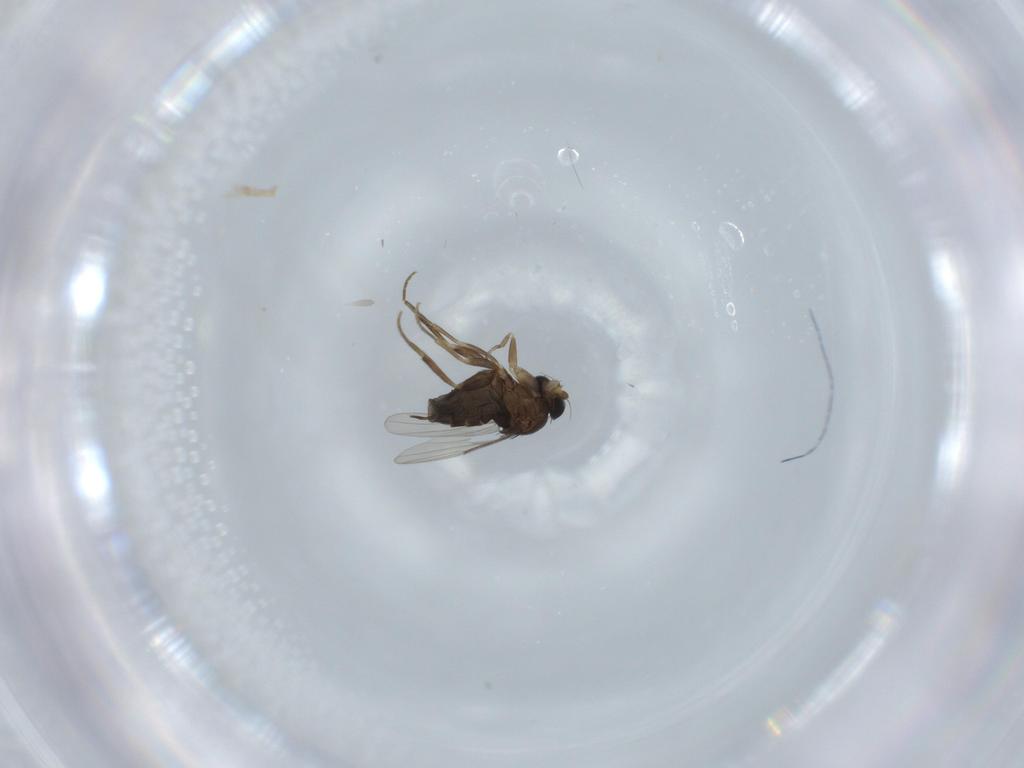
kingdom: Animalia
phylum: Arthropoda
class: Insecta
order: Diptera
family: Phoridae
